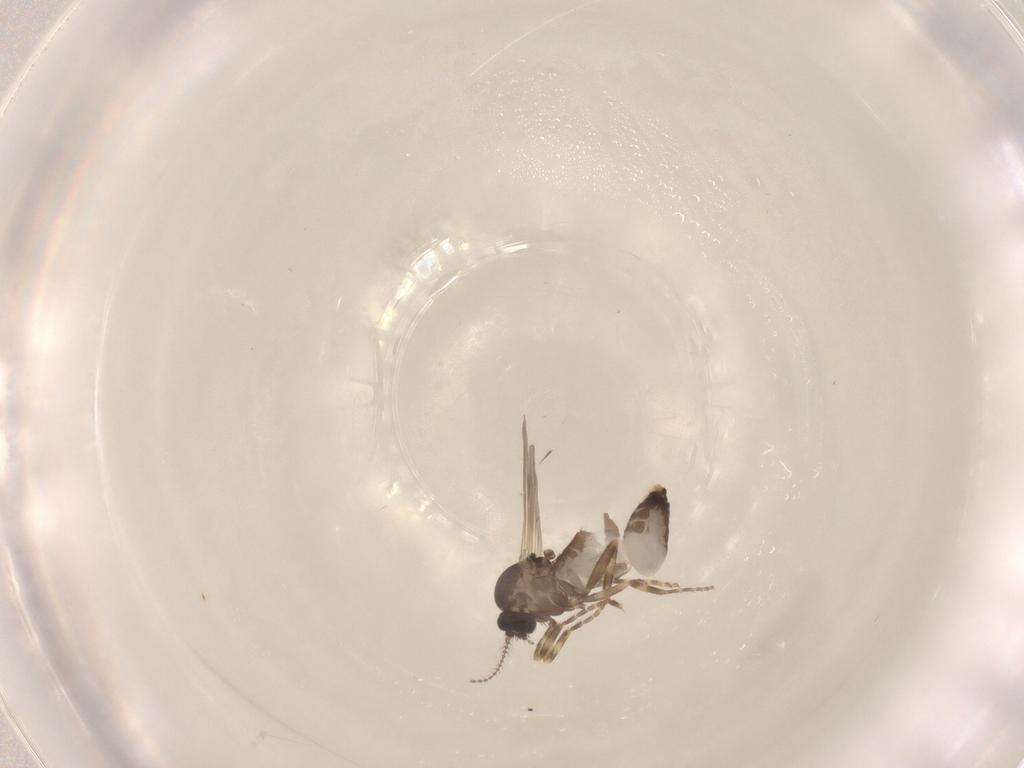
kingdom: Animalia
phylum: Arthropoda
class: Insecta
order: Diptera
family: Ceratopogonidae
